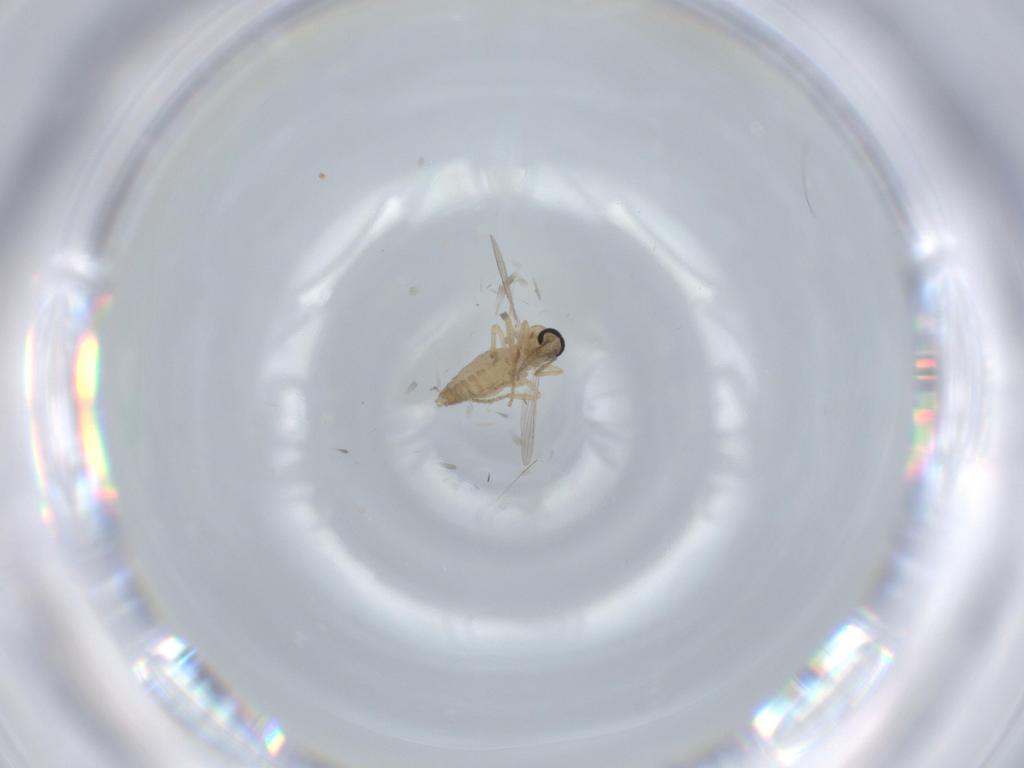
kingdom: Animalia
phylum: Arthropoda
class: Insecta
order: Diptera
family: Ceratopogonidae
